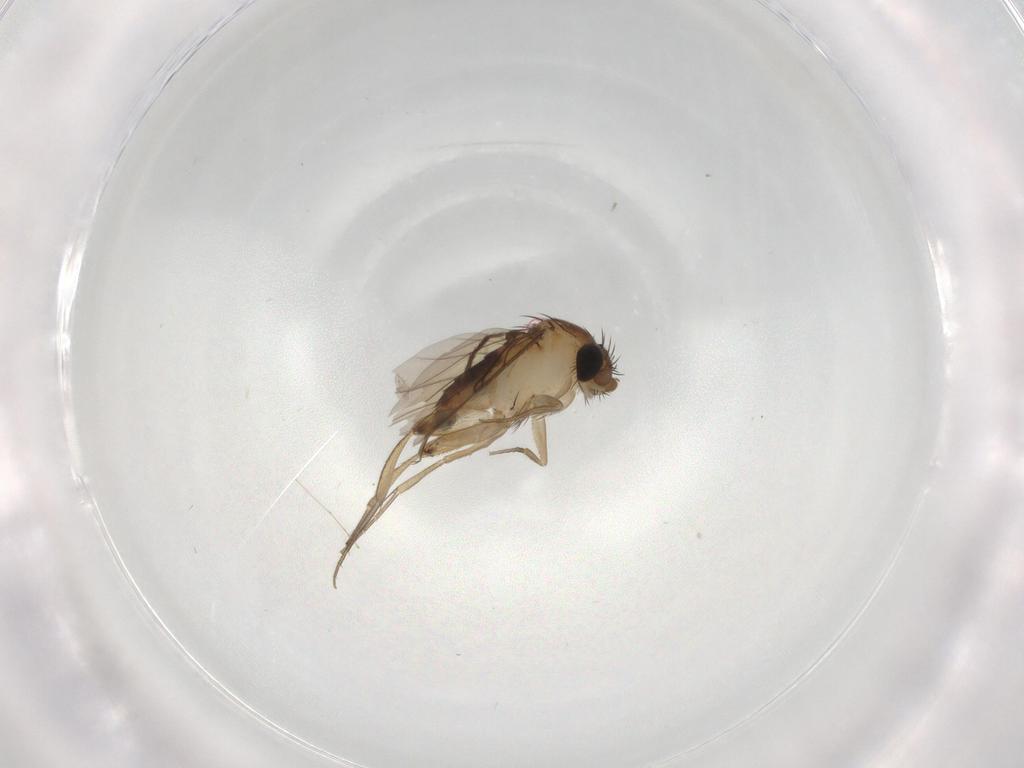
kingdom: Animalia
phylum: Arthropoda
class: Insecta
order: Diptera
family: Phoridae
